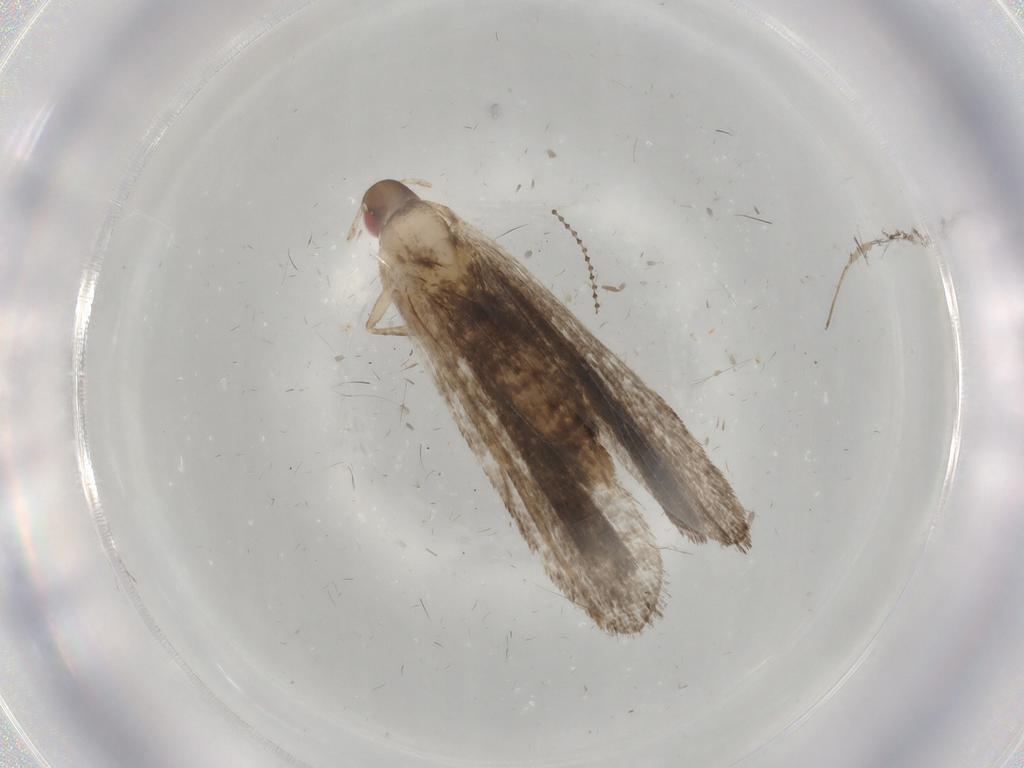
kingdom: Animalia
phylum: Arthropoda
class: Insecta
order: Lepidoptera
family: Gelechiidae
